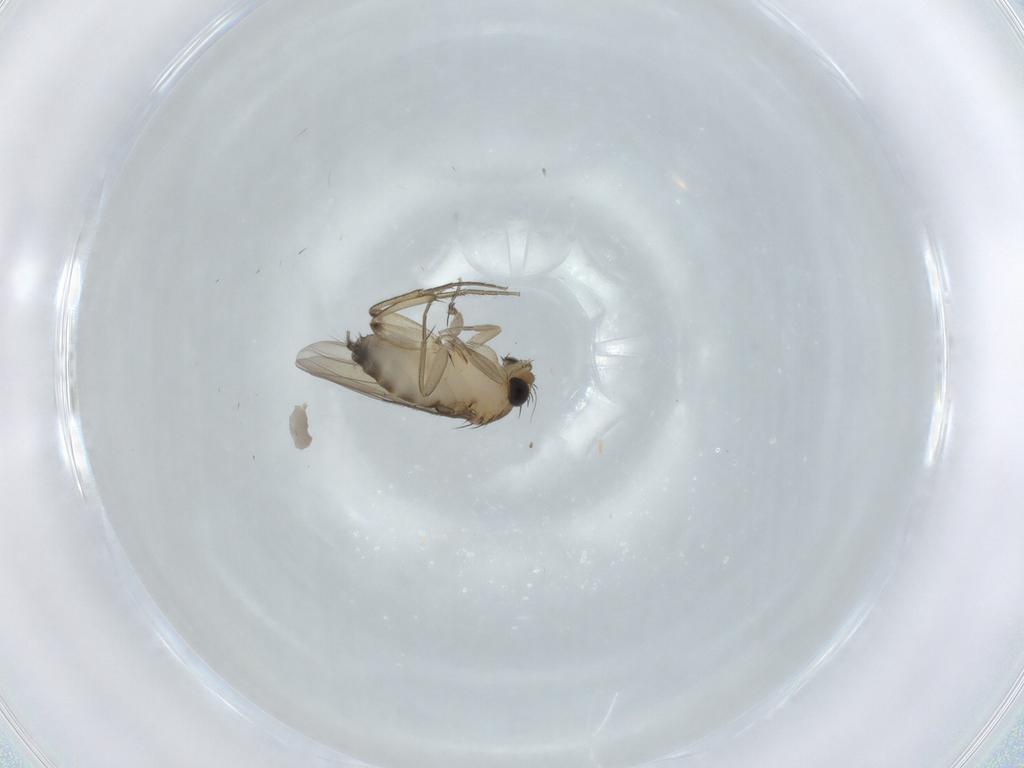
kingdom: Animalia
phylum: Arthropoda
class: Insecta
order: Diptera
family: Phoridae
